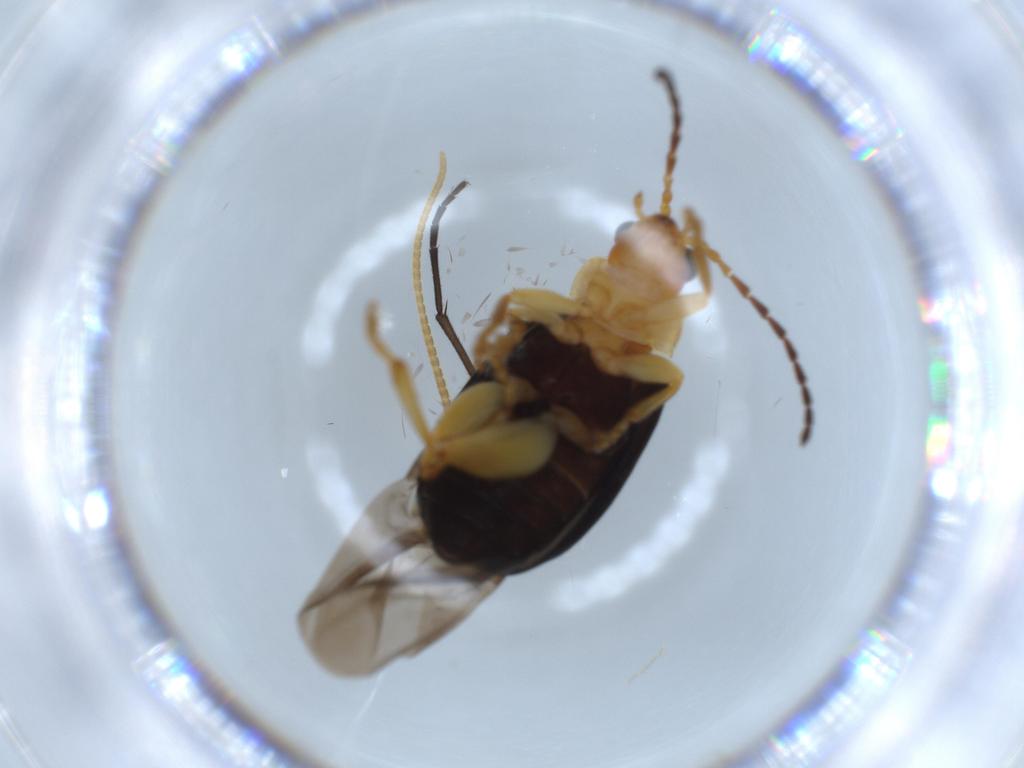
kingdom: Animalia
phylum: Arthropoda
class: Insecta
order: Coleoptera
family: Chrysomelidae
